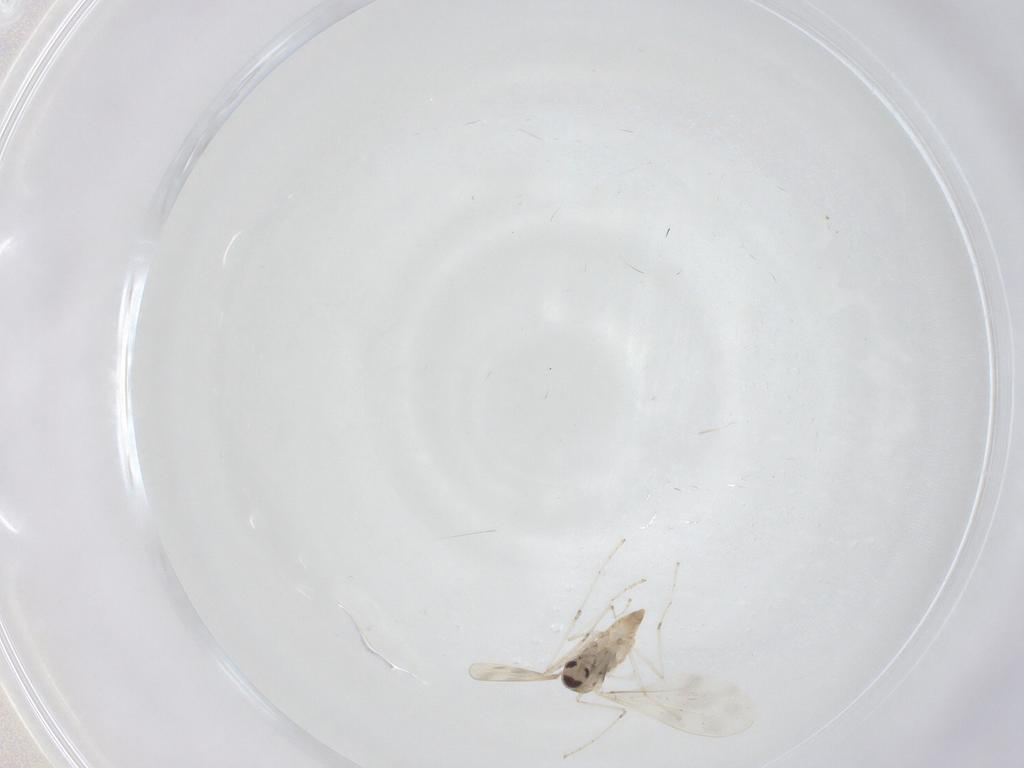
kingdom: Animalia
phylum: Arthropoda
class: Insecta
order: Diptera
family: Cecidomyiidae
